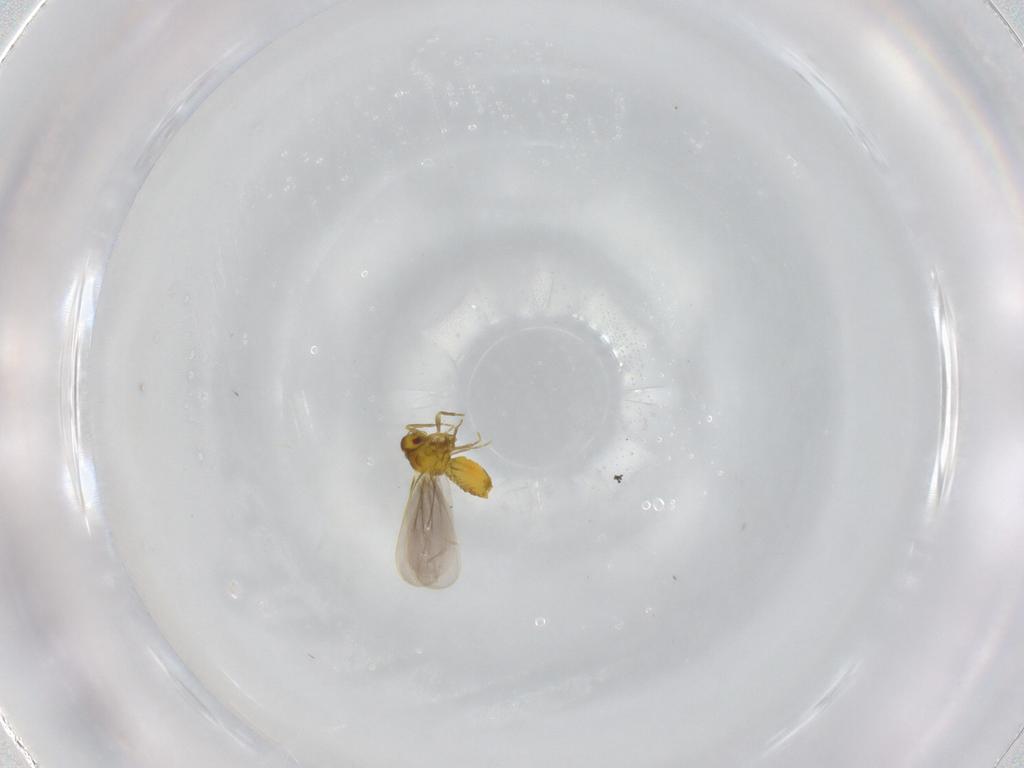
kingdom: Animalia
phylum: Arthropoda
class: Insecta
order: Hemiptera
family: Aleyrodidae
